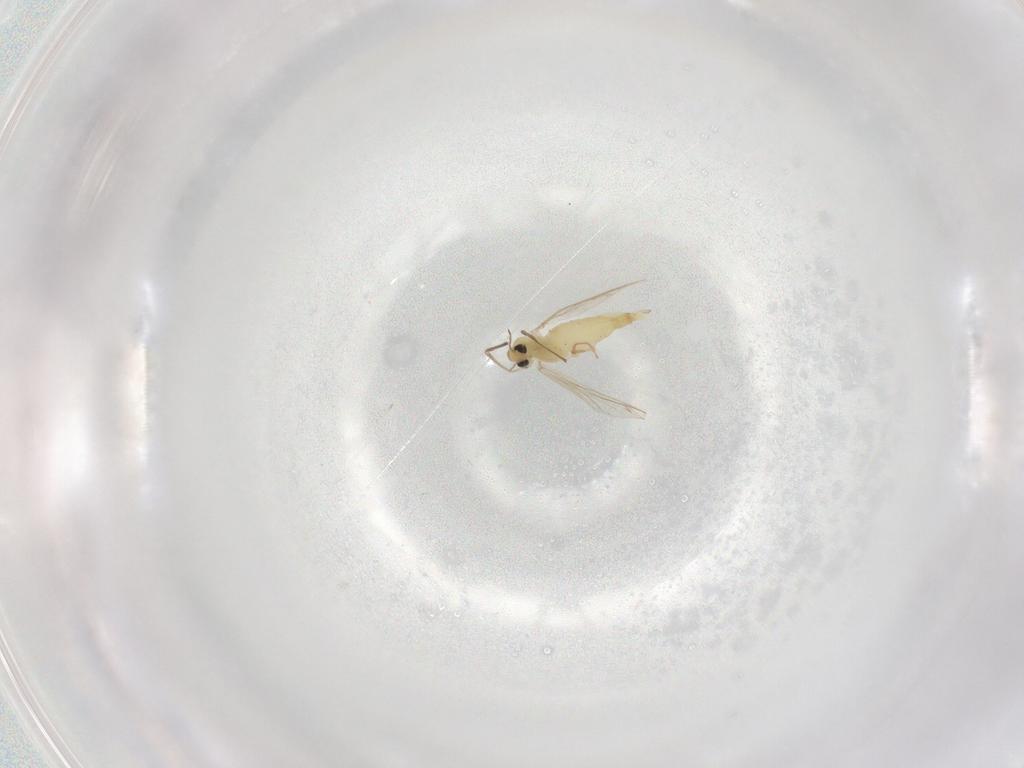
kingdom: Animalia
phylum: Arthropoda
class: Insecta
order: Diptera
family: Chironomidae
